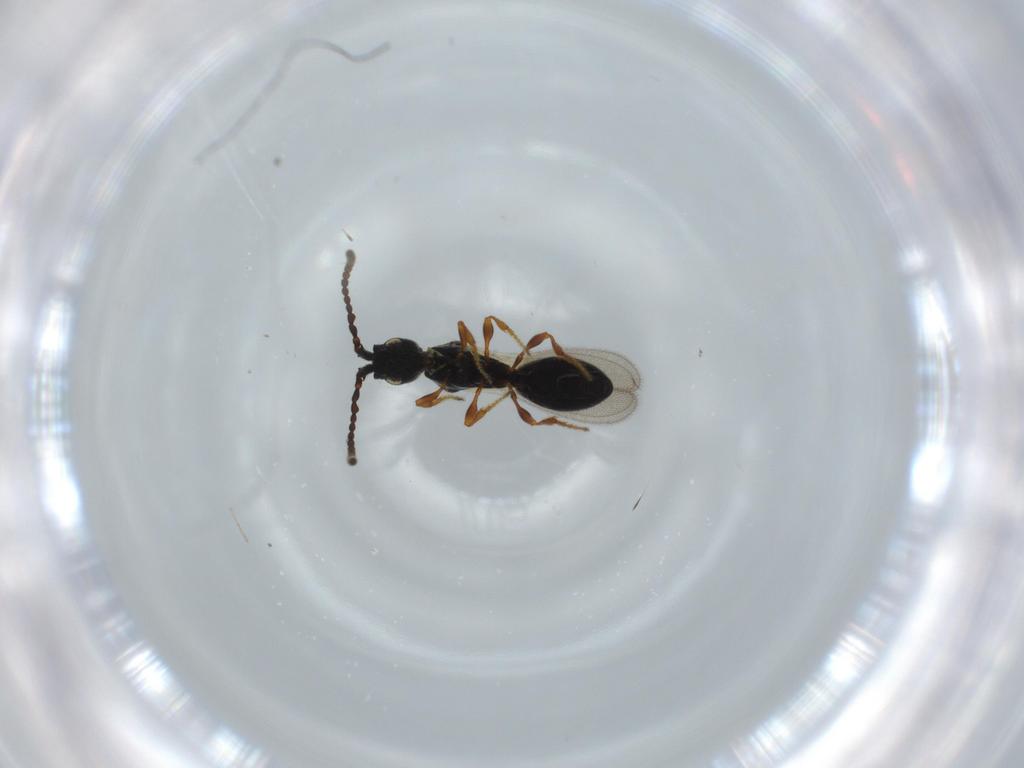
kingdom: Animalia
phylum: Arthropoda
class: Insecta
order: Hymenoptera
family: Diapriidae
